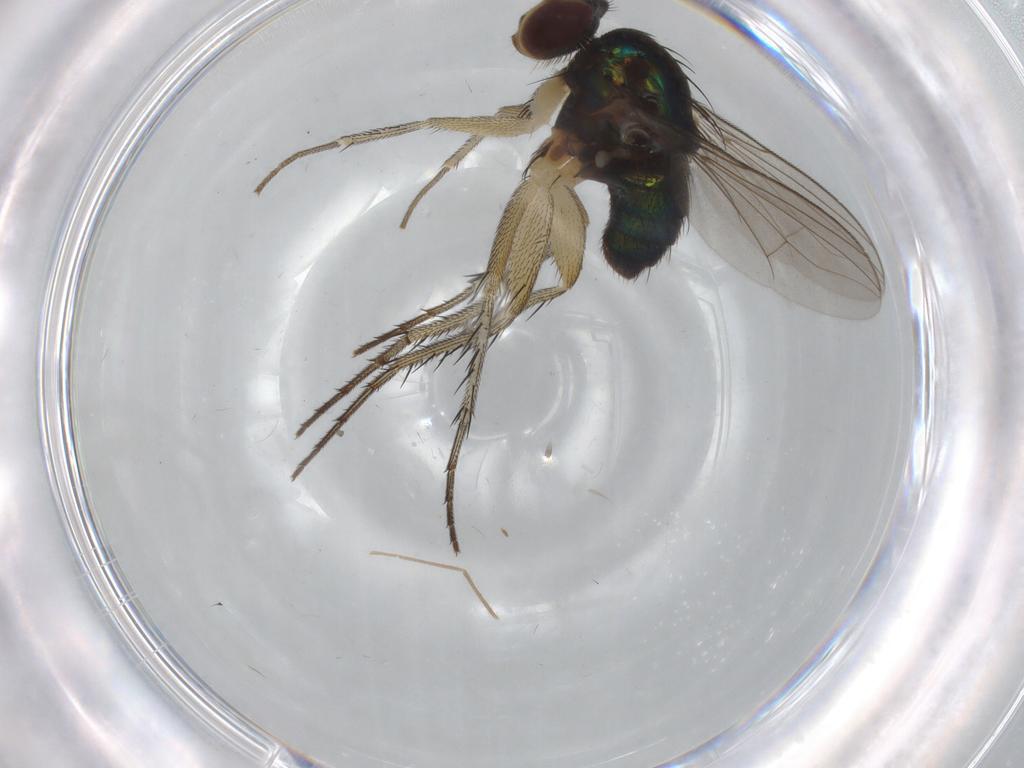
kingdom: Animalia
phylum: Arthropoda
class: Insecta
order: Diptera
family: Dolichopodidae
